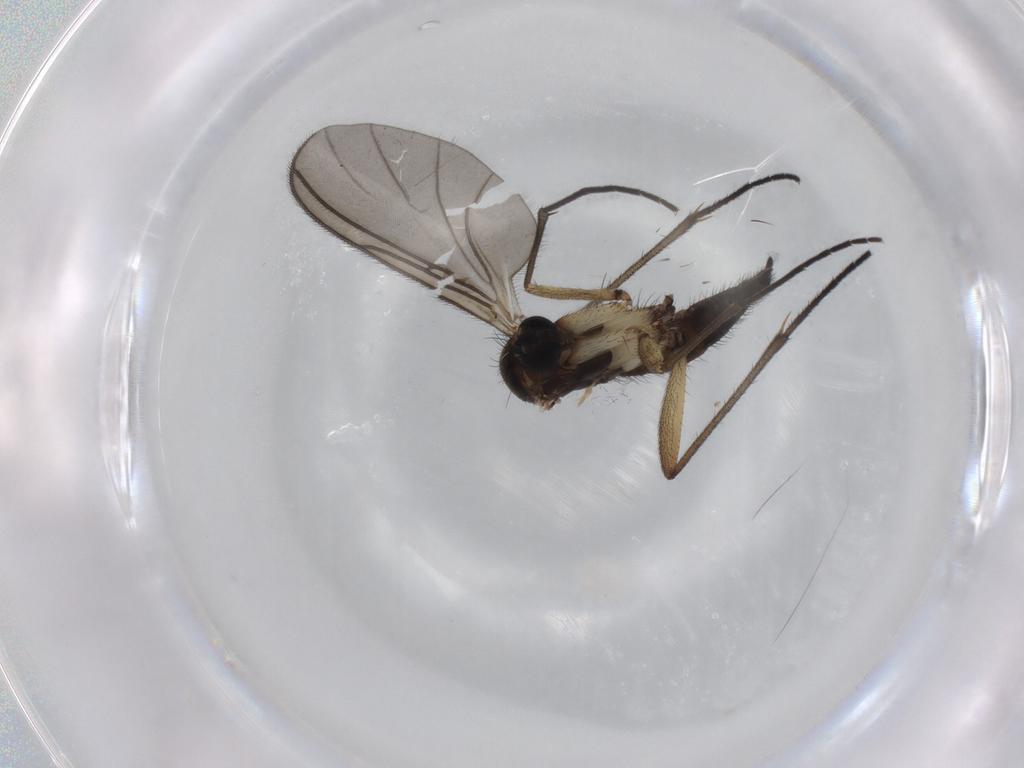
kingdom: Animalia
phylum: Arthropoda
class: Insecta
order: Diptera
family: Sciaridae
